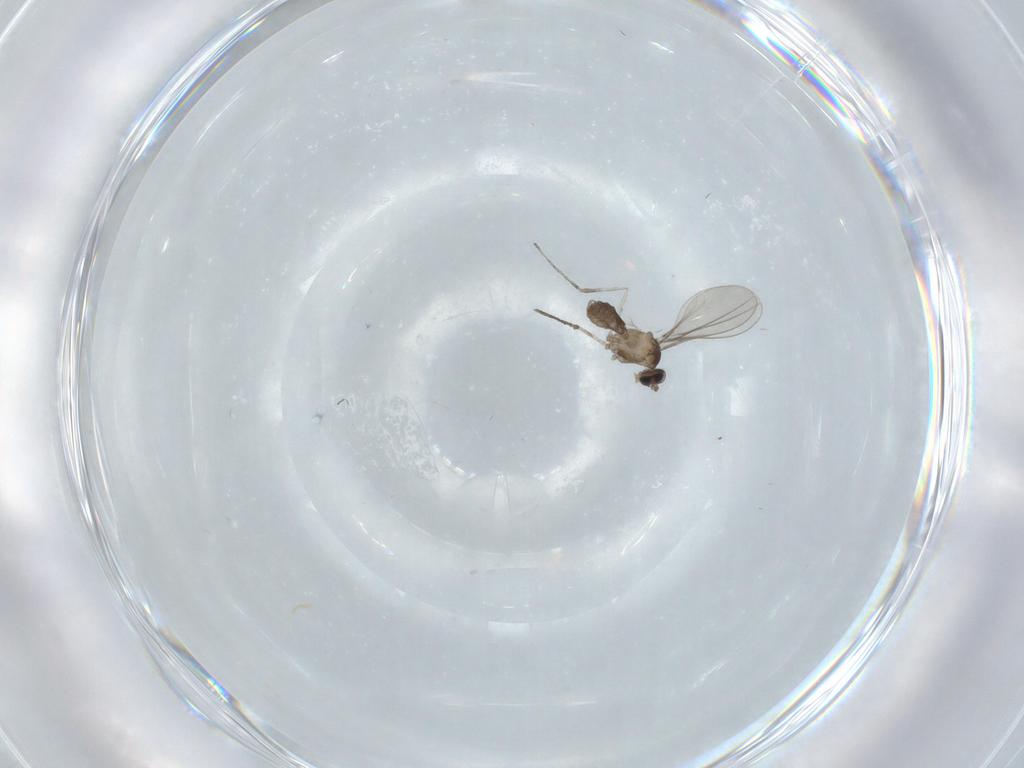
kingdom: Animalia
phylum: Arthropoda
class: Insecta
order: Diptera
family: Cecidomyiidae
